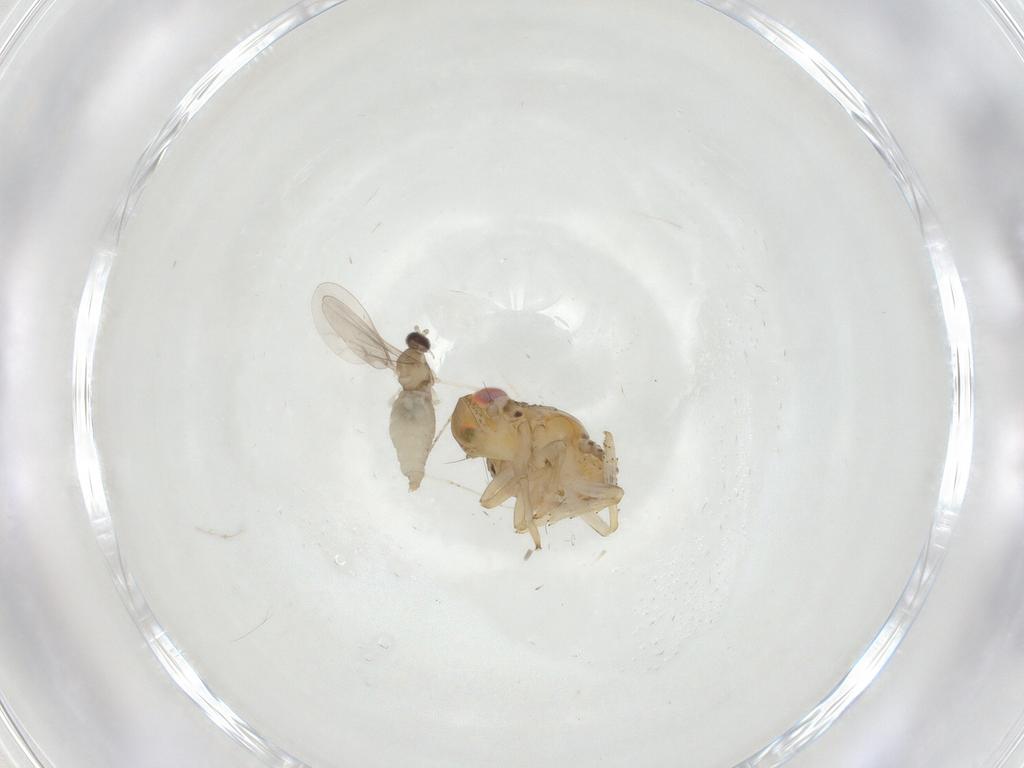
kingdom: Animalia
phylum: Arthropoda
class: Insecta
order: Hemiptera
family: Issidae
